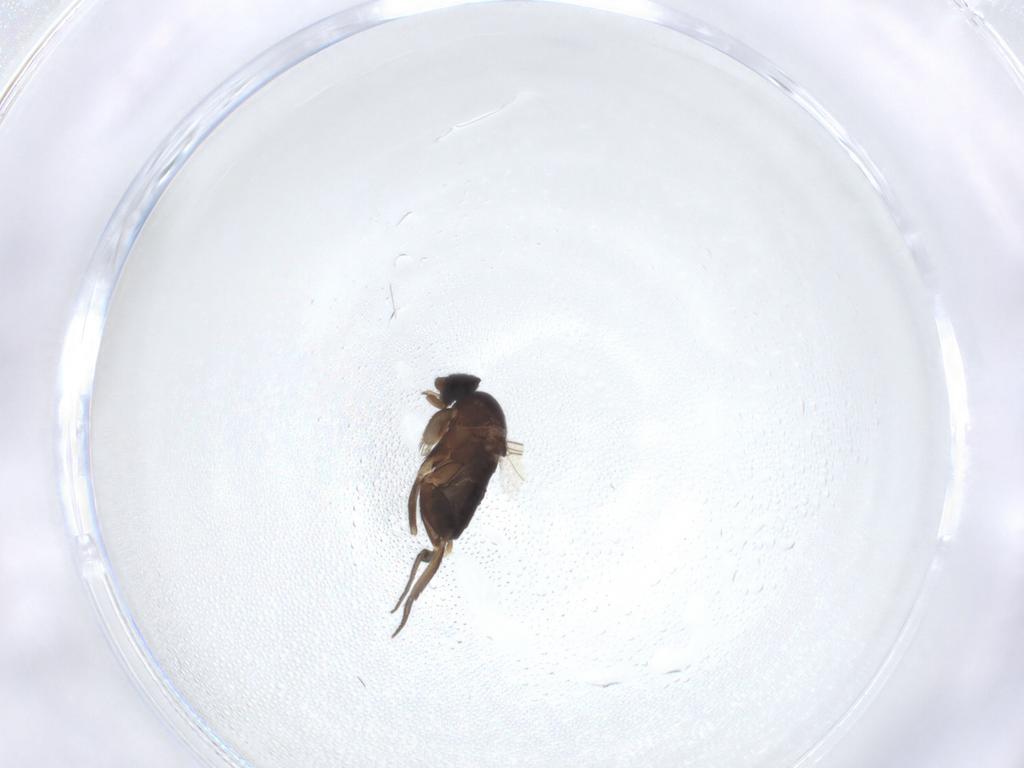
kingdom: Animalia
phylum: Arthropoda
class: Insecta
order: Diptera
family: Phoridae
